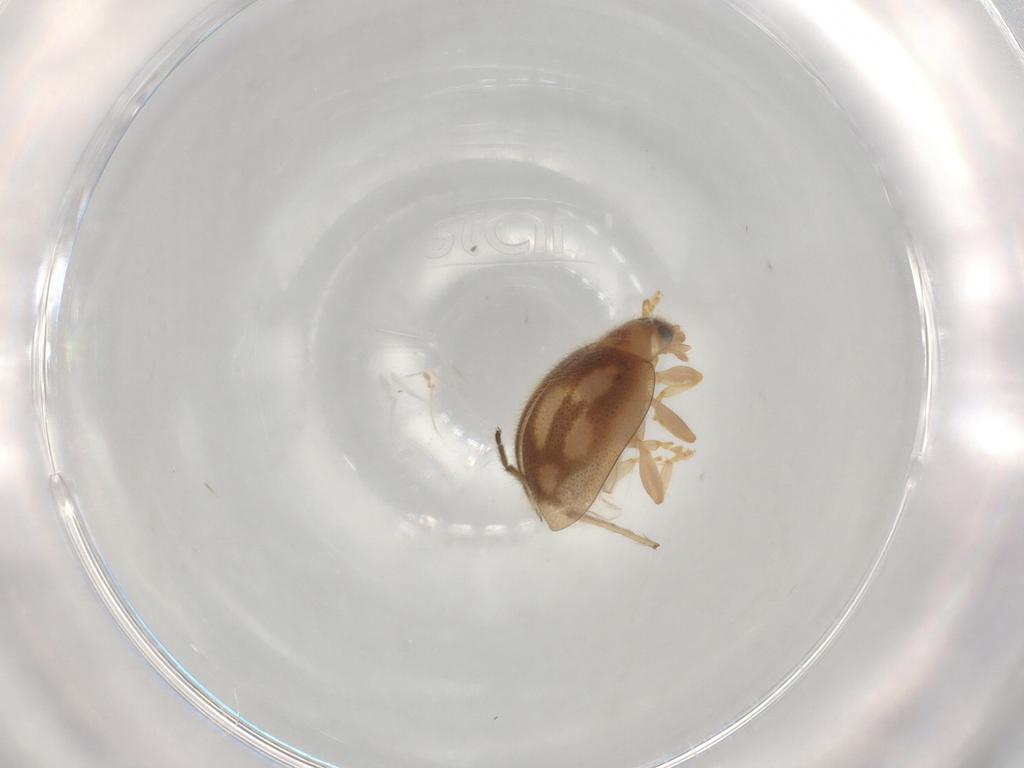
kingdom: Animalia
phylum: Arthropoda
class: Insecta
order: Coleoptera
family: Coccinellidae
